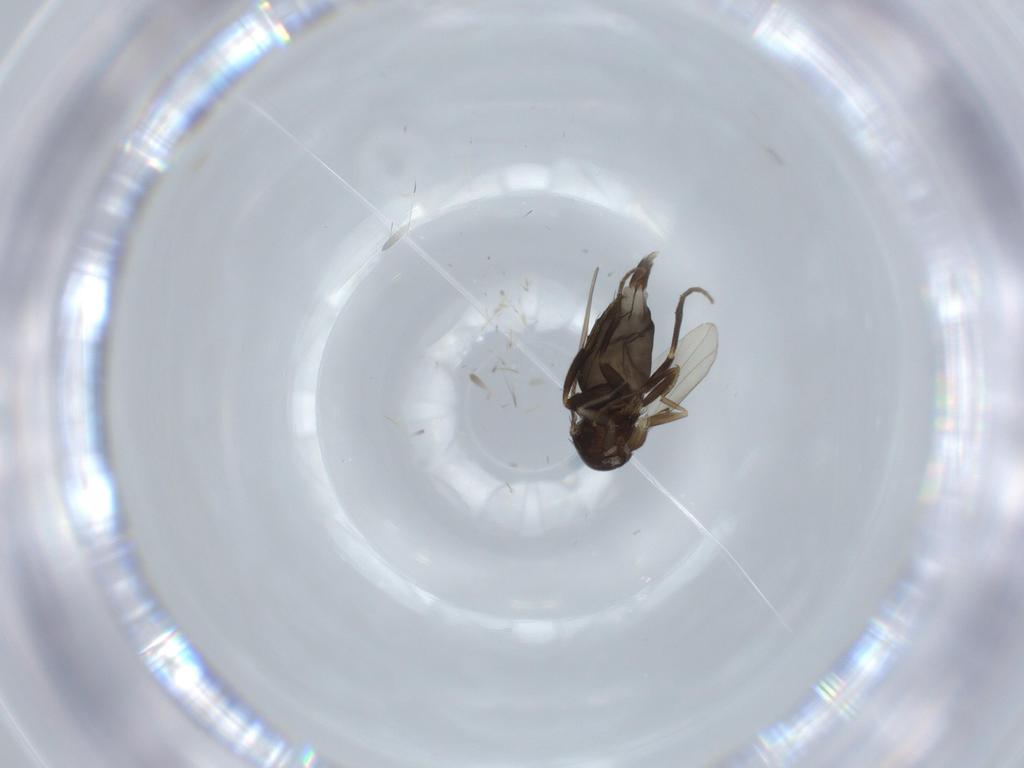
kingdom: Animalia
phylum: Arthropoda
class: Insecta
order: Diptera
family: Phoridae
